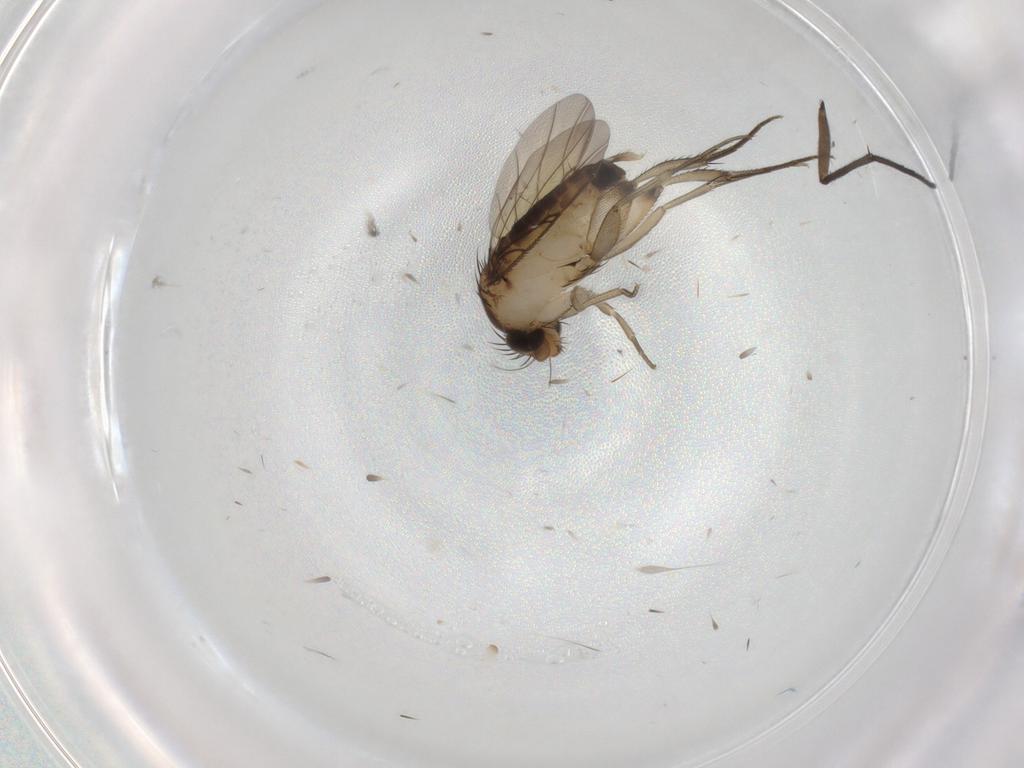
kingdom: Animalia
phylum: Arthropoda
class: Insecta
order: Diptera
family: Phoridae
